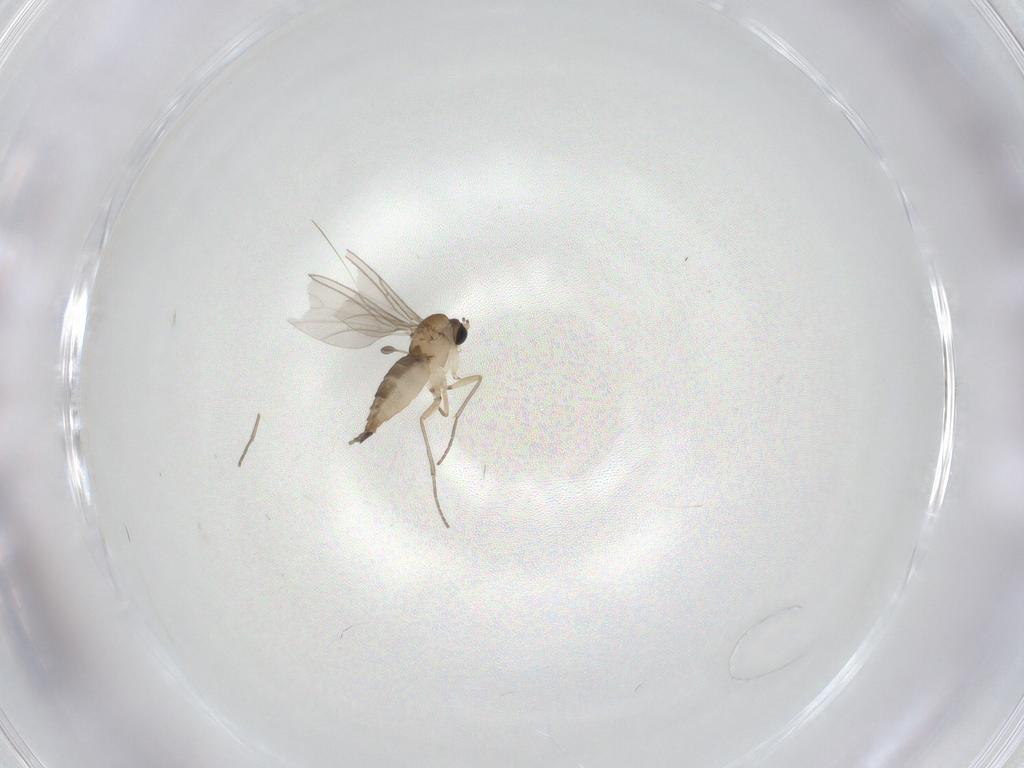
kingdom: Animalia
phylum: Arthropoda
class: Insecta
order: Diptera
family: Sciaridae
